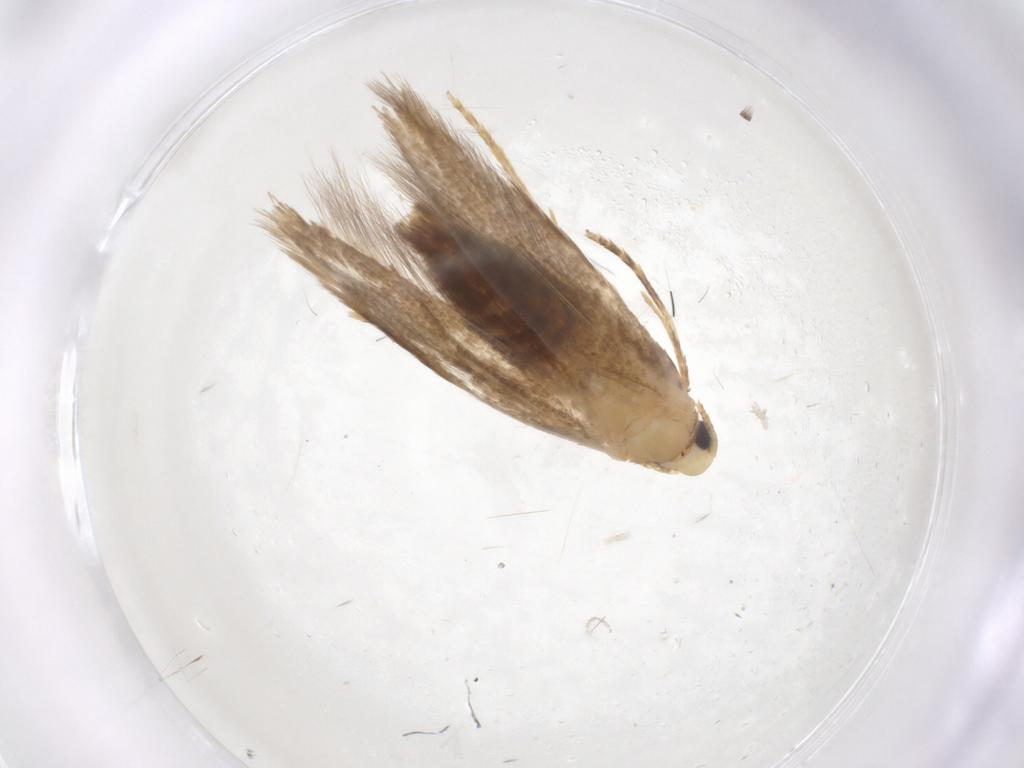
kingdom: Animalia
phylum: Arthropoda
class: Insecta
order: Lepidoptera
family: Tineidae
